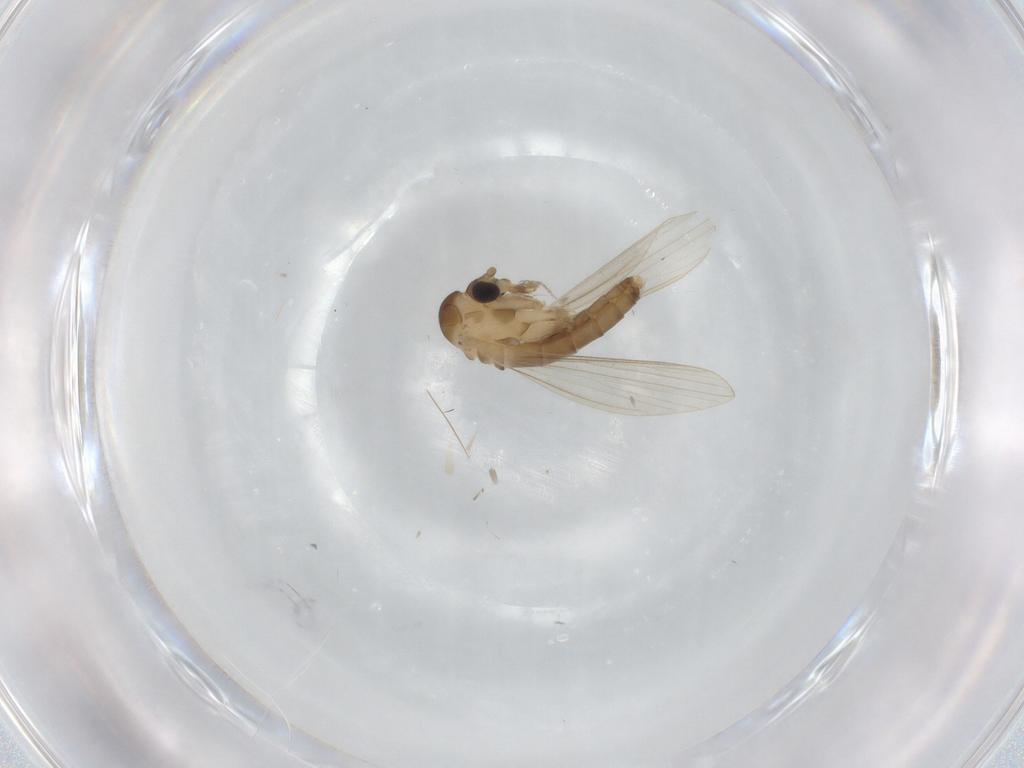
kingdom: Animalia
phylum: Arthropoda
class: Insecta
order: Diptera
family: Psychodidae
